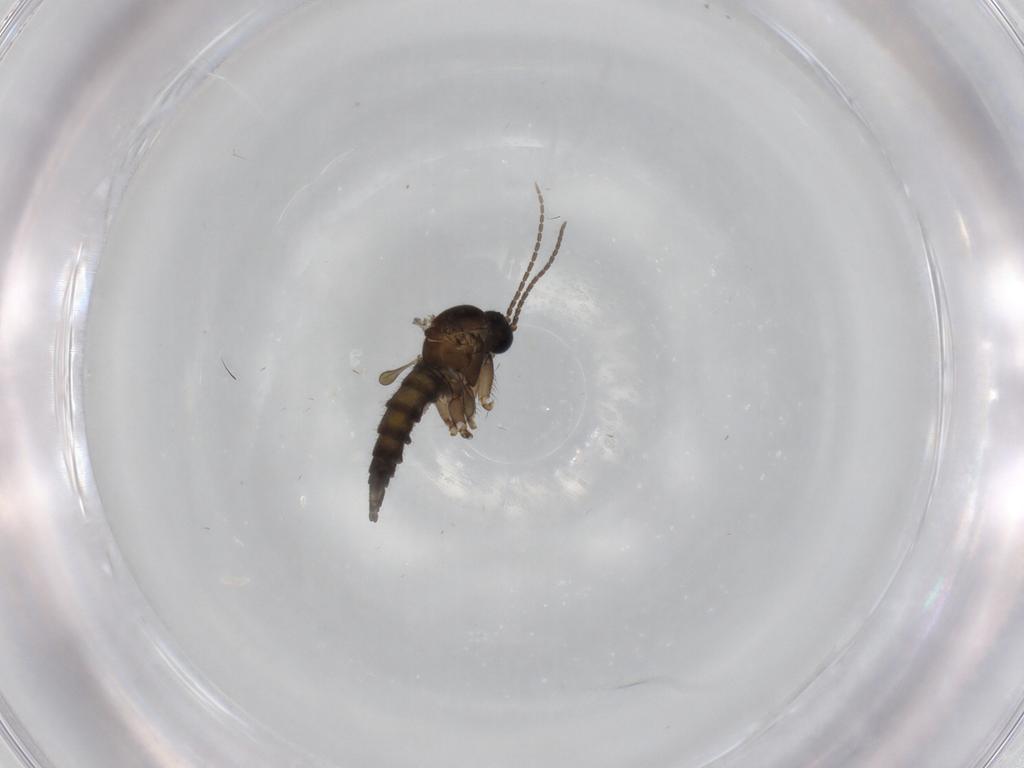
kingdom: Animalia
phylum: Arthropoda
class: Insecta
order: Diptera
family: Sciaridae
